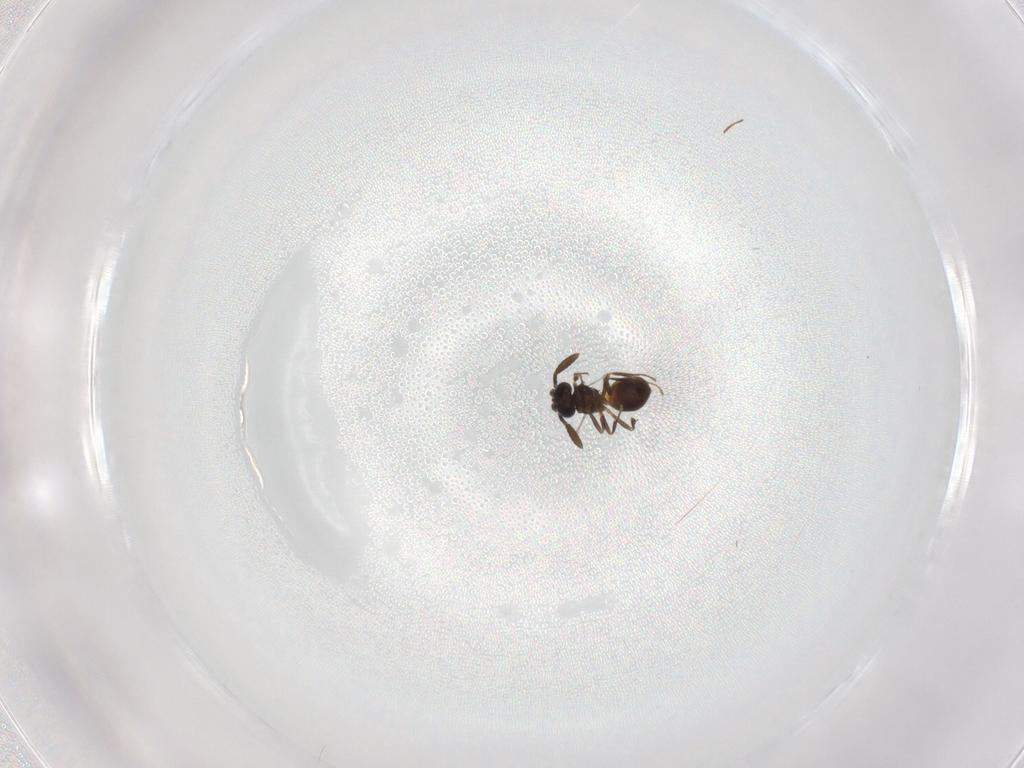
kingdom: Animalia
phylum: Arthropoda
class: Insecta
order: Hymenoptera
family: Scelionidae
